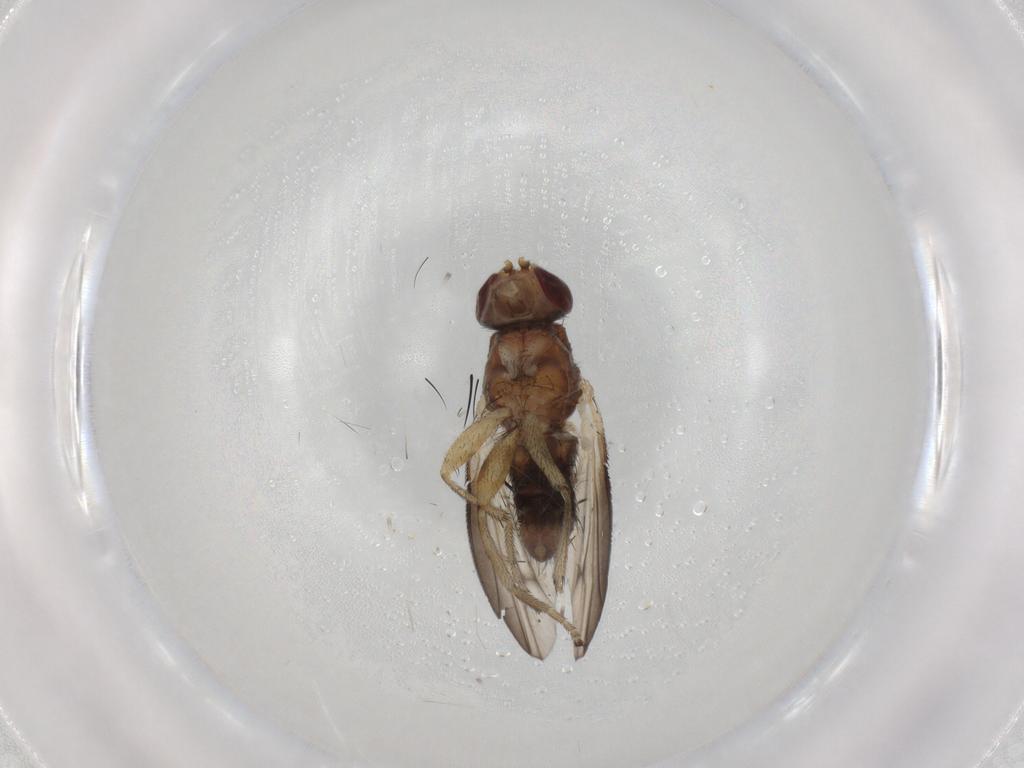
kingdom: Animalia
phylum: Arthropoda
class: Insecta
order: Diptera
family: Heleomyzidae
